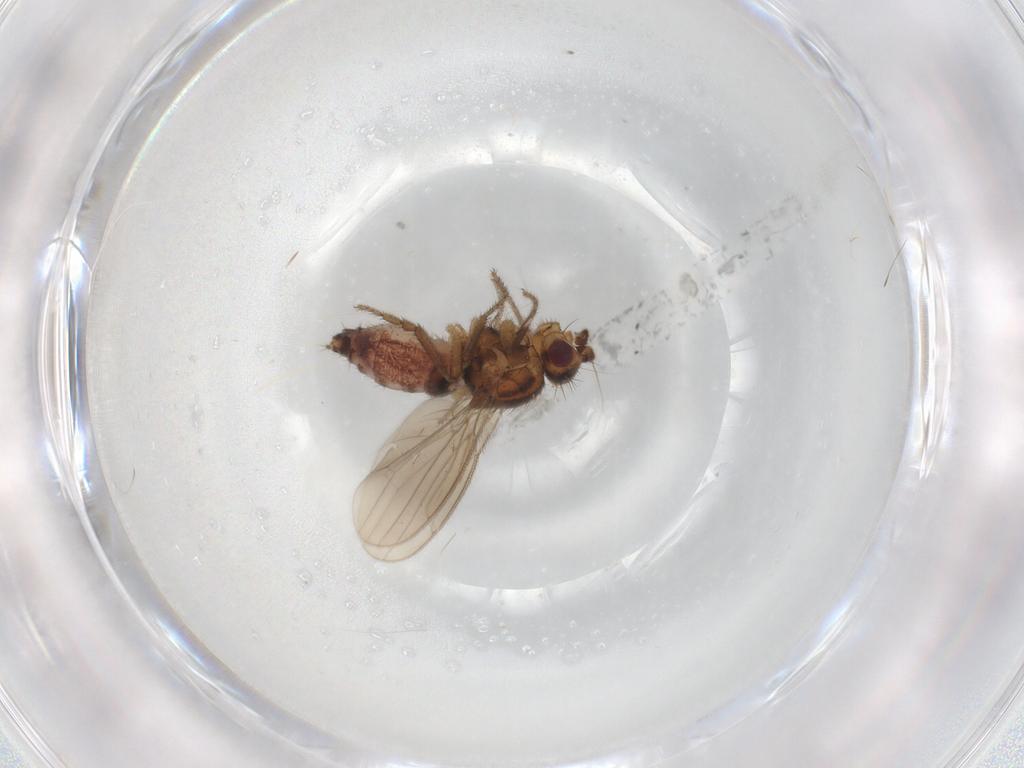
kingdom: Animalia
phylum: Arthropoda
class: Insecta
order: Diptera
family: Sphaeroceridae
